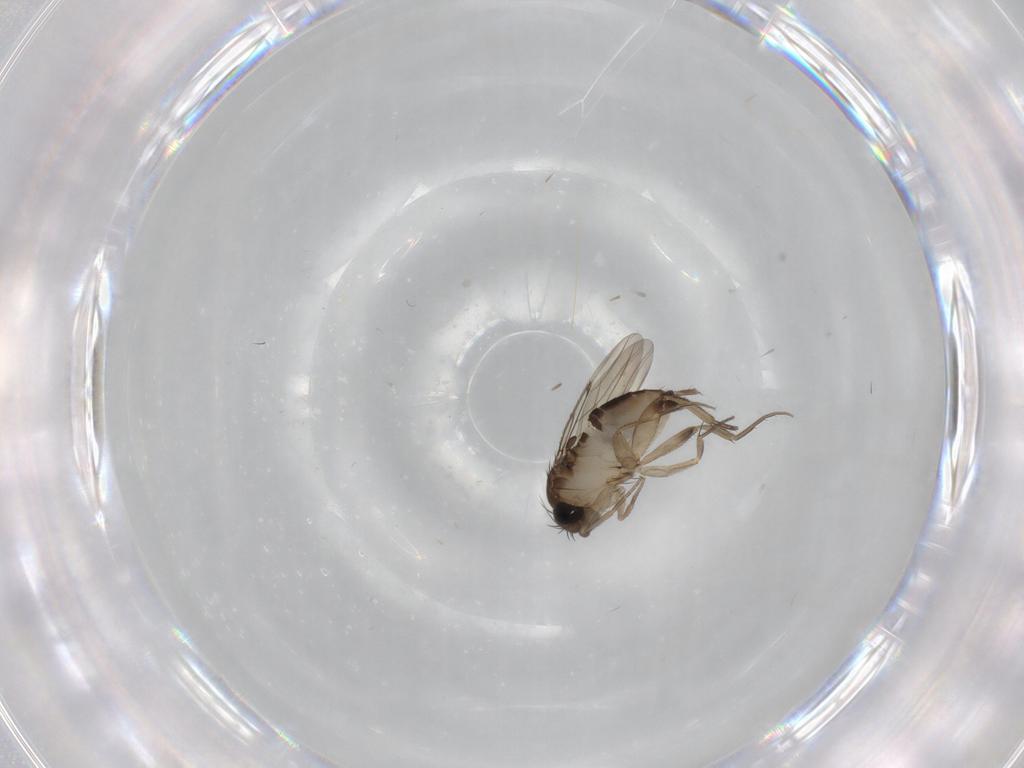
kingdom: Animalia
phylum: Arthropoda
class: Insecta
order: Diptera
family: Phoridae
